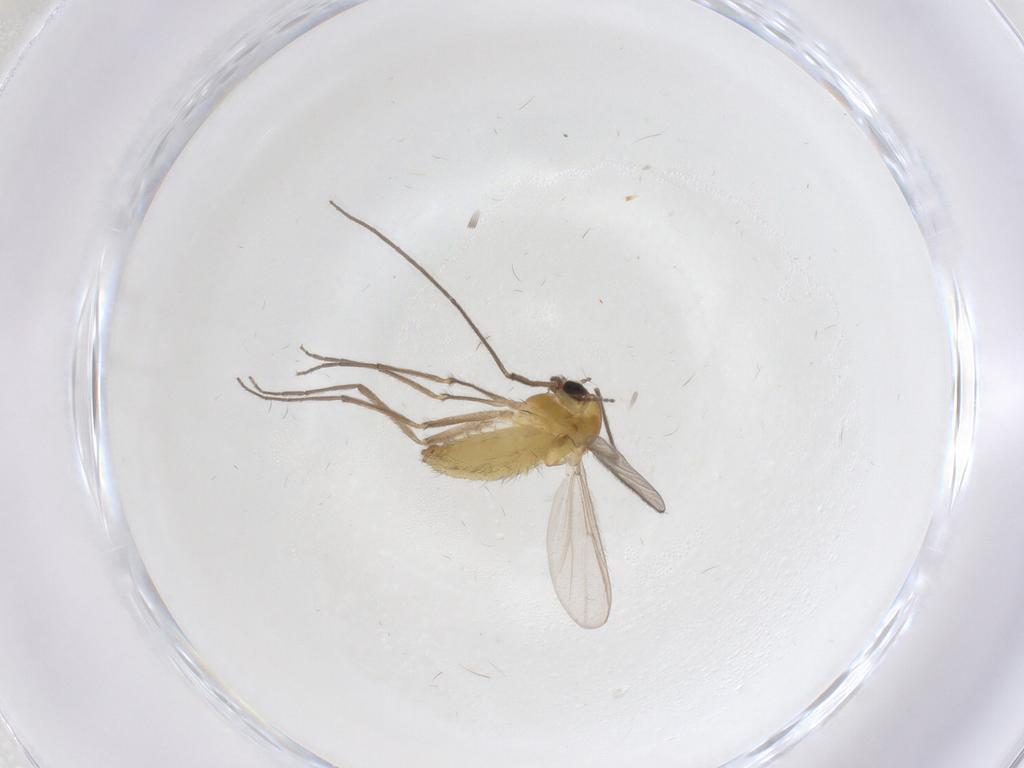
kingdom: Animalia
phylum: Arthropoda
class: Insecta
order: Diptera
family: Chironomidae
